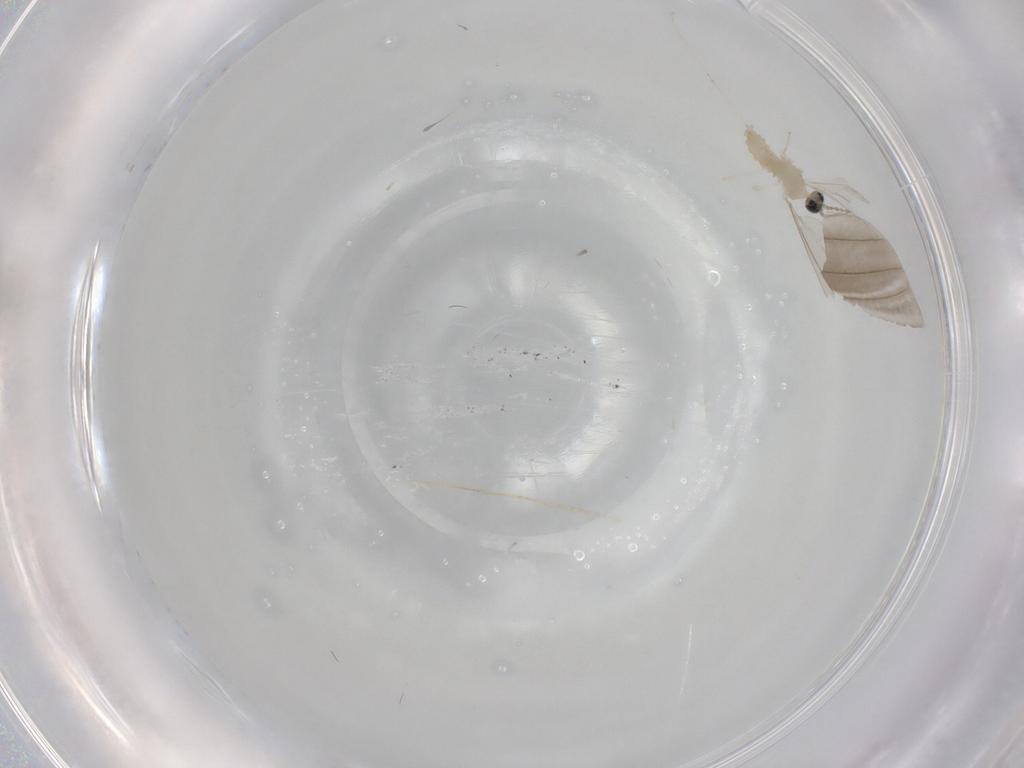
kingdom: Animalia
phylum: Arthropoda
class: Insecta
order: Diptera
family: Cecidomyiidae
